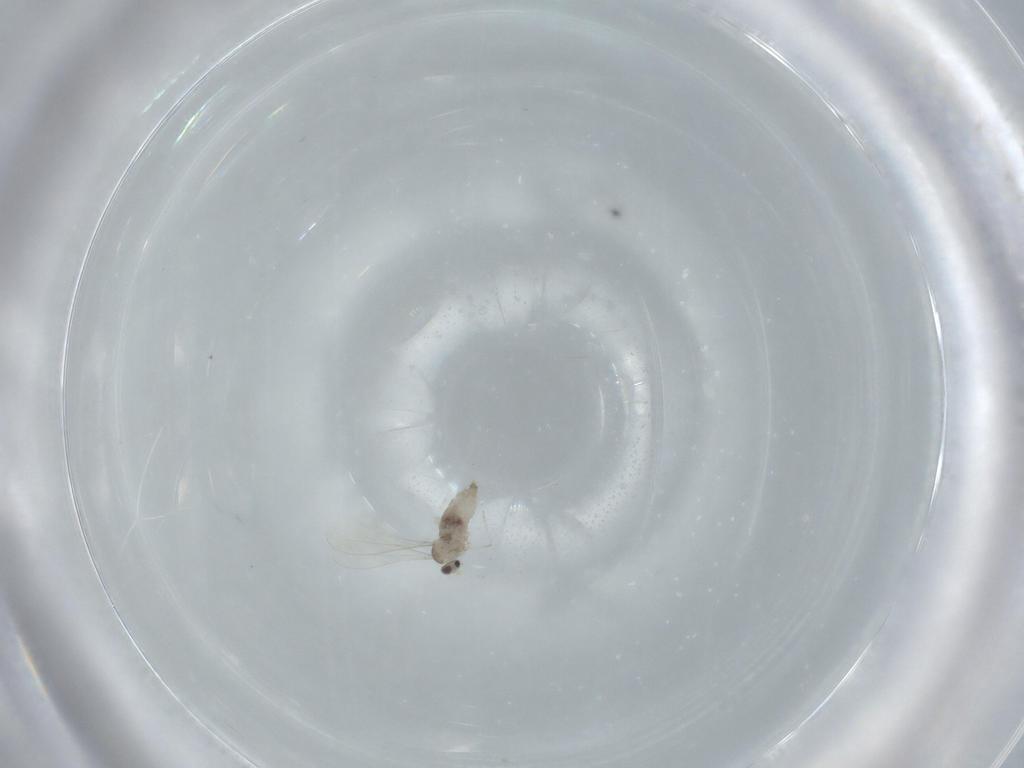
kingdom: Animalia
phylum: Arthropoda
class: Insecta
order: Diptera
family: Cecidomyiidae
